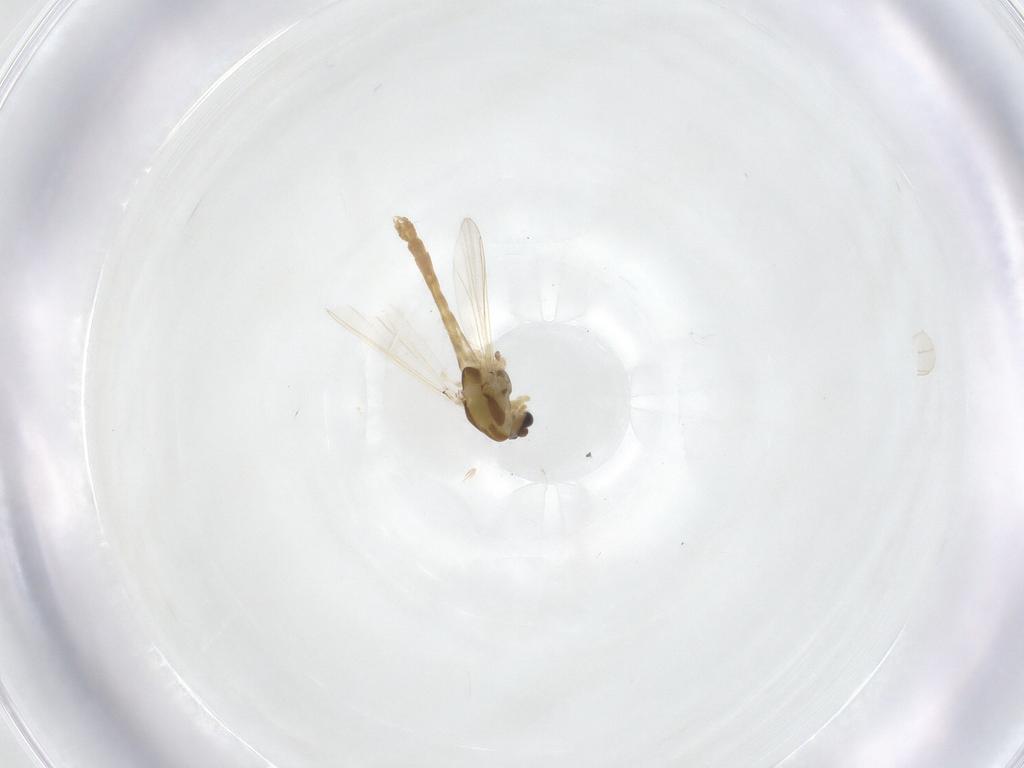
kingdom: Animalia
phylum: Arthropoda
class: Insecta
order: Diptera
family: Chironomidae
